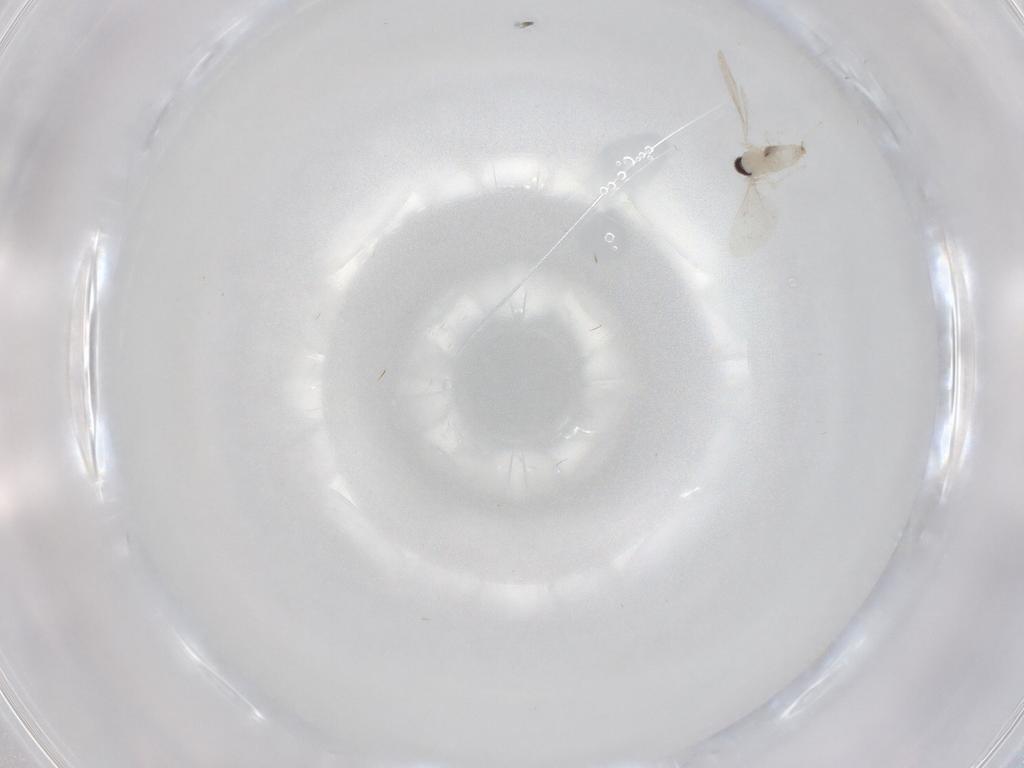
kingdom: Animalia
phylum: Arthropoda
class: Insecta
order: Diptera
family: Cecidomyiidae
